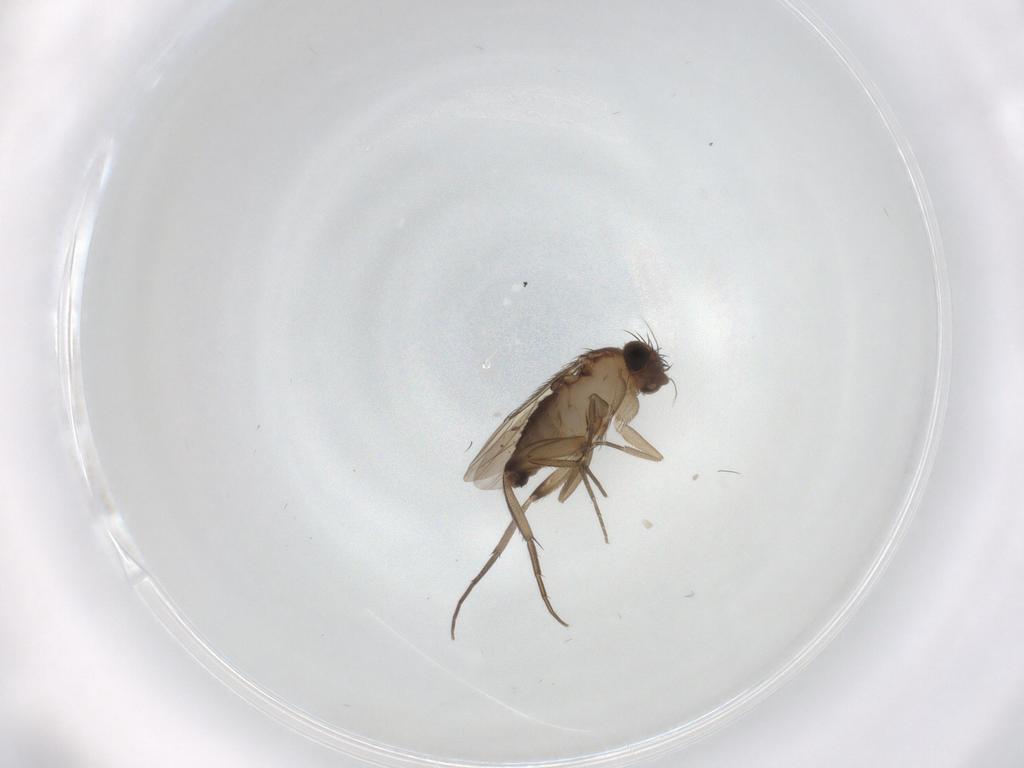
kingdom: Animalia
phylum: Arthropoda
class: Insecta
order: Diptera
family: Phoridae
